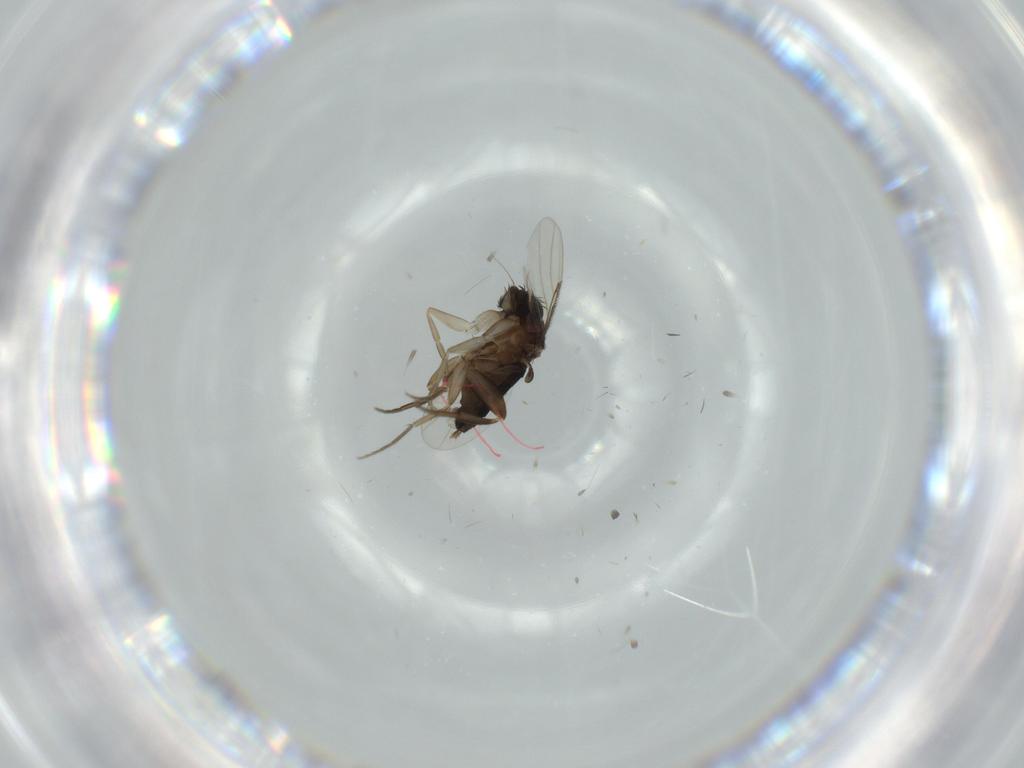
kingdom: Animalia
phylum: Arthropoda
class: Insecta
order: Diptera
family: Phoridae
